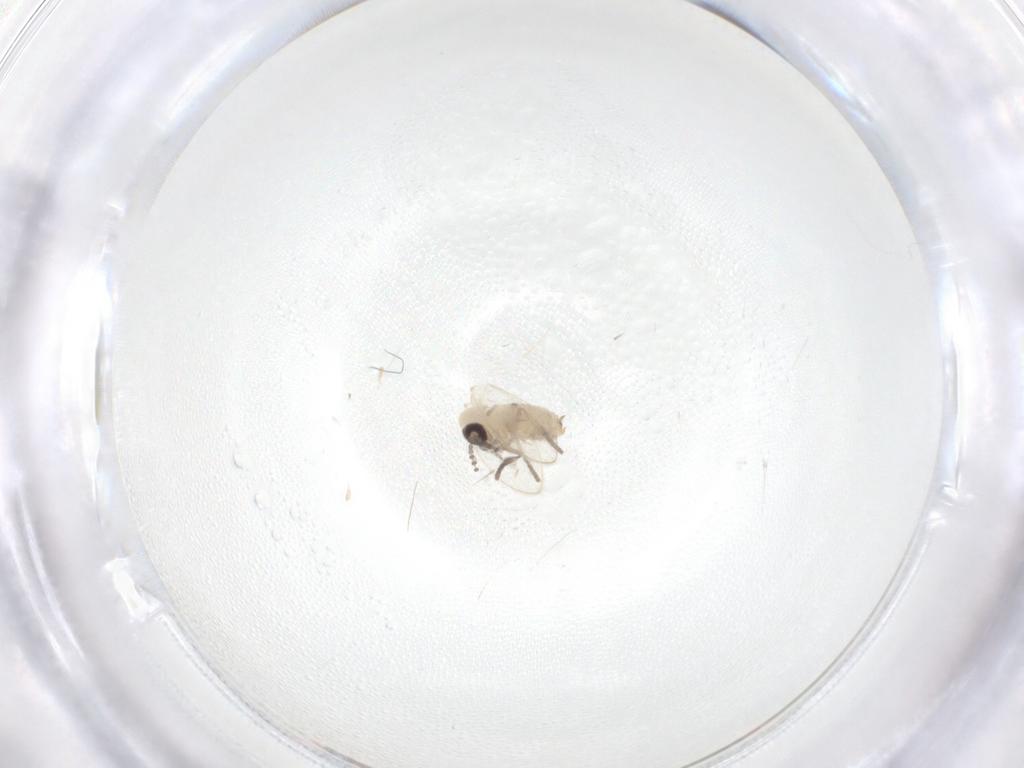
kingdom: Animalia
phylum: Arthropoda
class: Insecta
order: Diptera
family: Psychodidae
